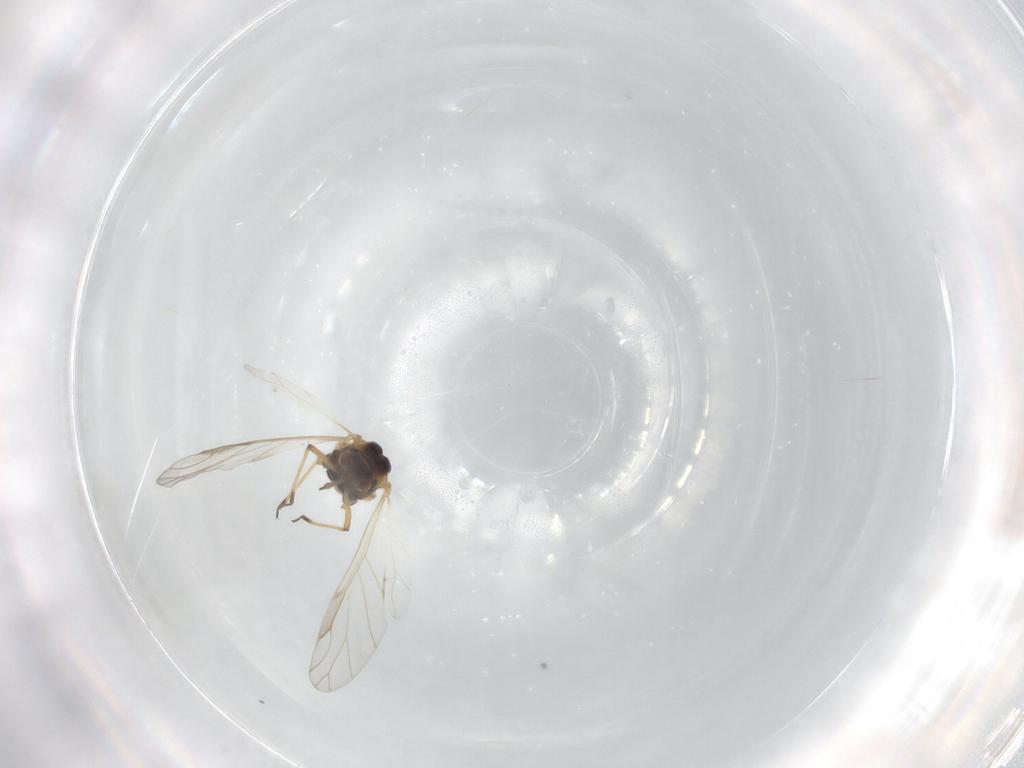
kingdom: Animalia
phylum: Arthropoda
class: Insecta
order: Hemiptera
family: Aphididae
